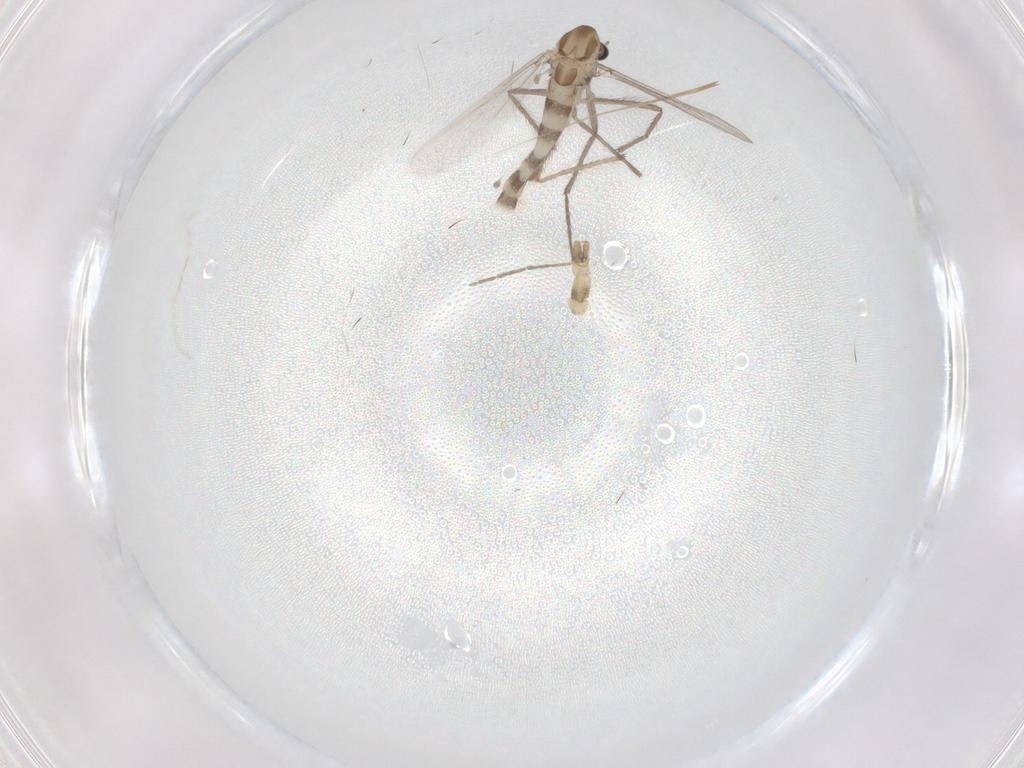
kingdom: Animalia
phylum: Arthropoda
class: Insecta
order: Diptera
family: Chironomidae
